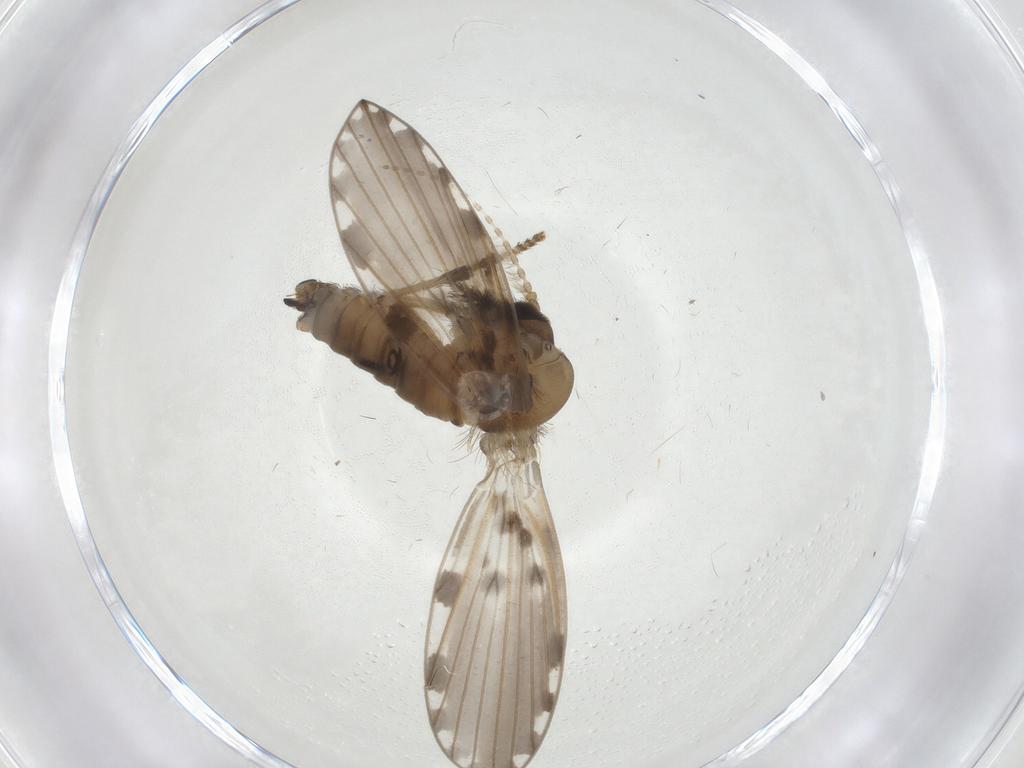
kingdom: Animalia
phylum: Arthropoda
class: Insecta
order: Diptera
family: Psychodidae
